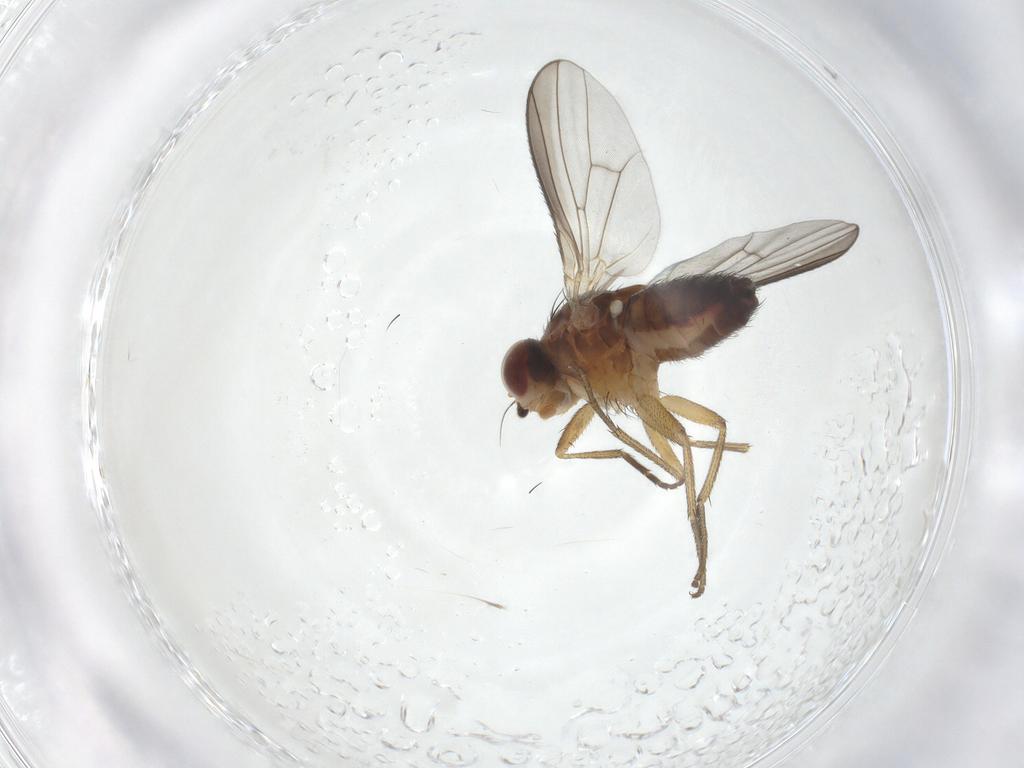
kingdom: Animalia
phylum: Arthropoda
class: Insecta
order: Diptera
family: Heleomyzidae
